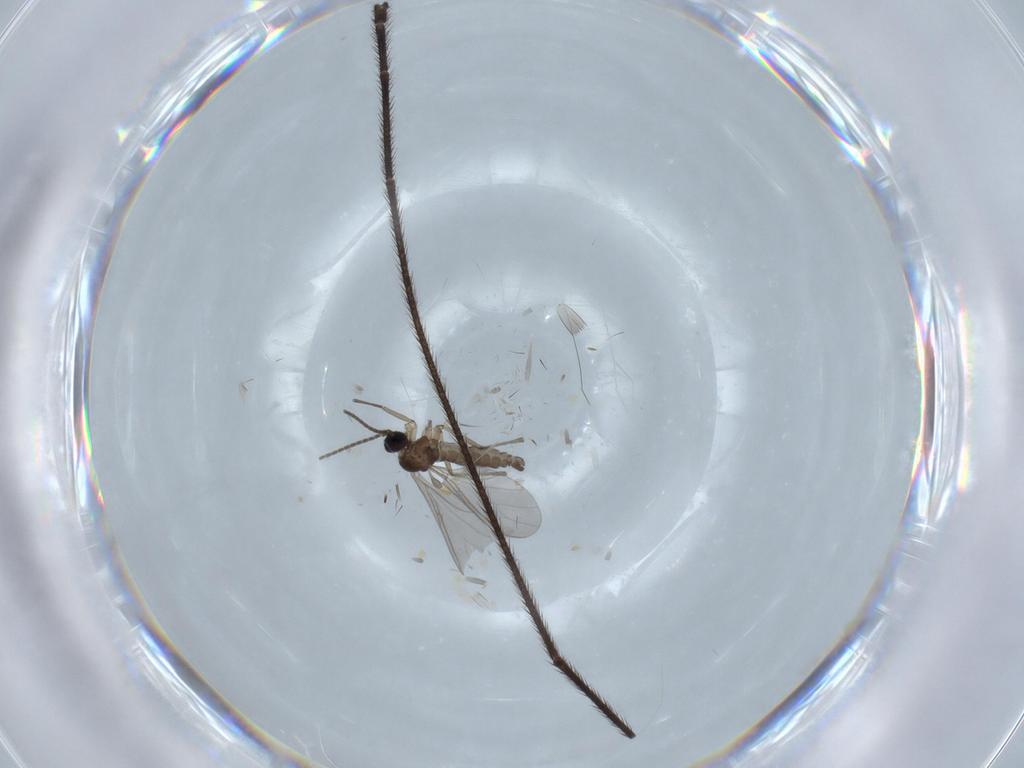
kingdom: Animalia
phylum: Arthropoda
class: Insecta
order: Diptera
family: Sciaridae
